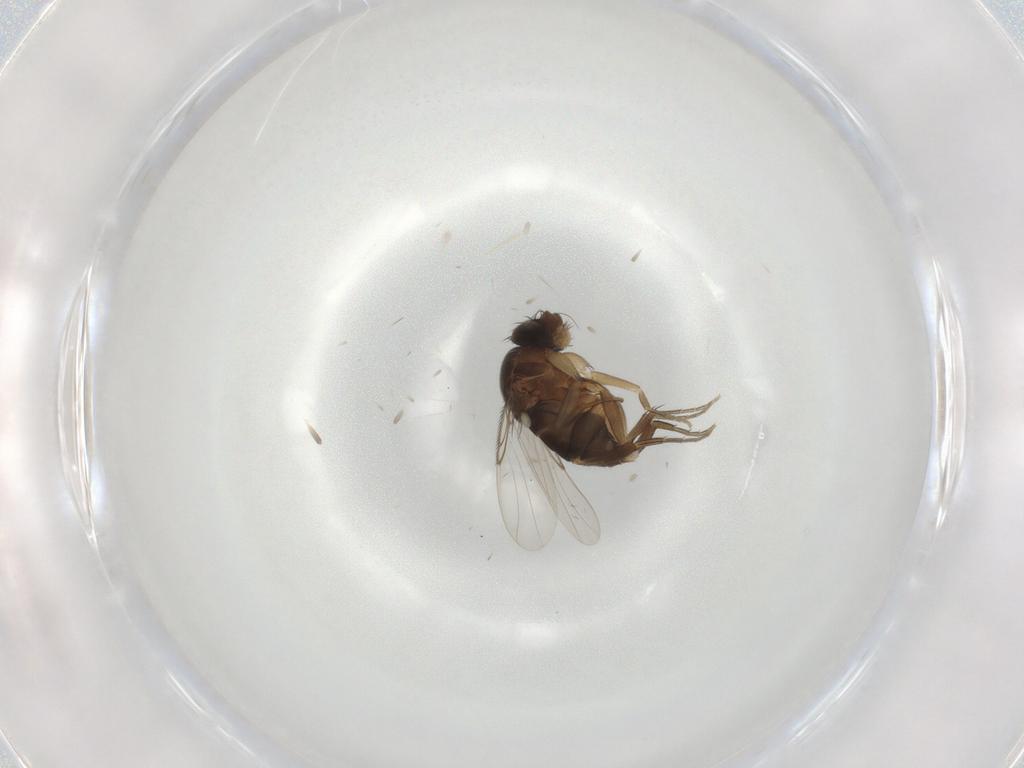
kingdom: Animalia
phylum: Arthropoda
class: Insecta
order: Diptera
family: Phoridae
